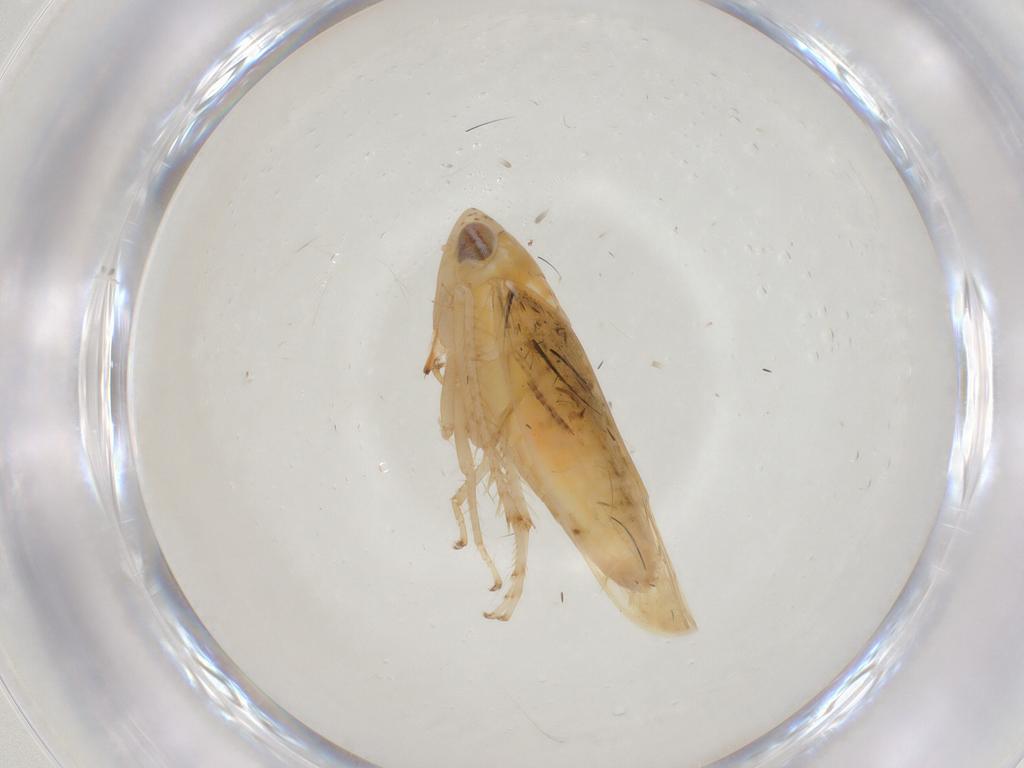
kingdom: Animalia
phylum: Arthropoda
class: Insecta
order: Hemiptera
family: Cicadellidae
